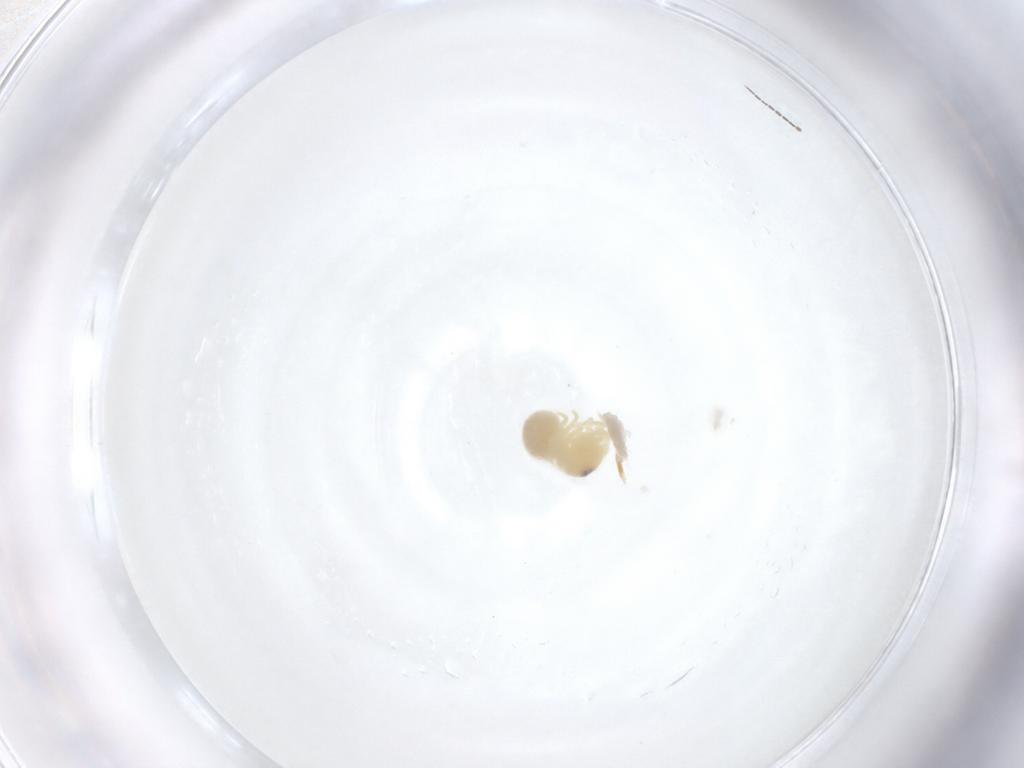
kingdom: Animalia
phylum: Arthropoda
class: Arachnida
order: Araneae
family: Pholcidae
